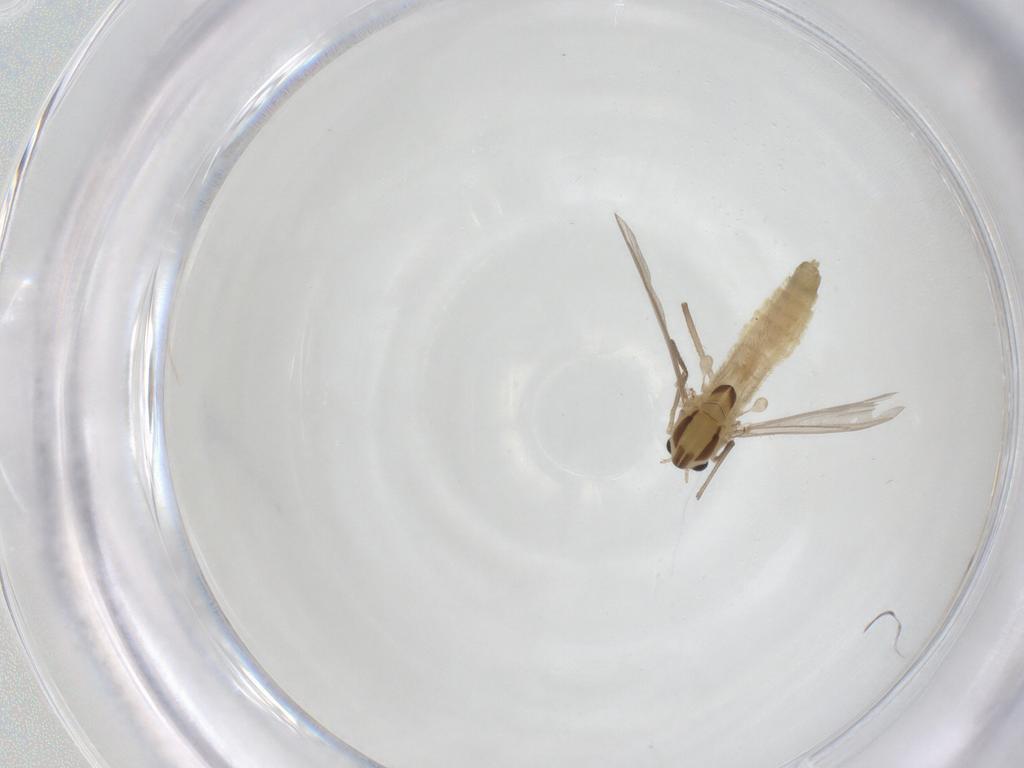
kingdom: Animalia
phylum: Arthropoda
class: Insecta
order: Diptera
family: Chironomidae
